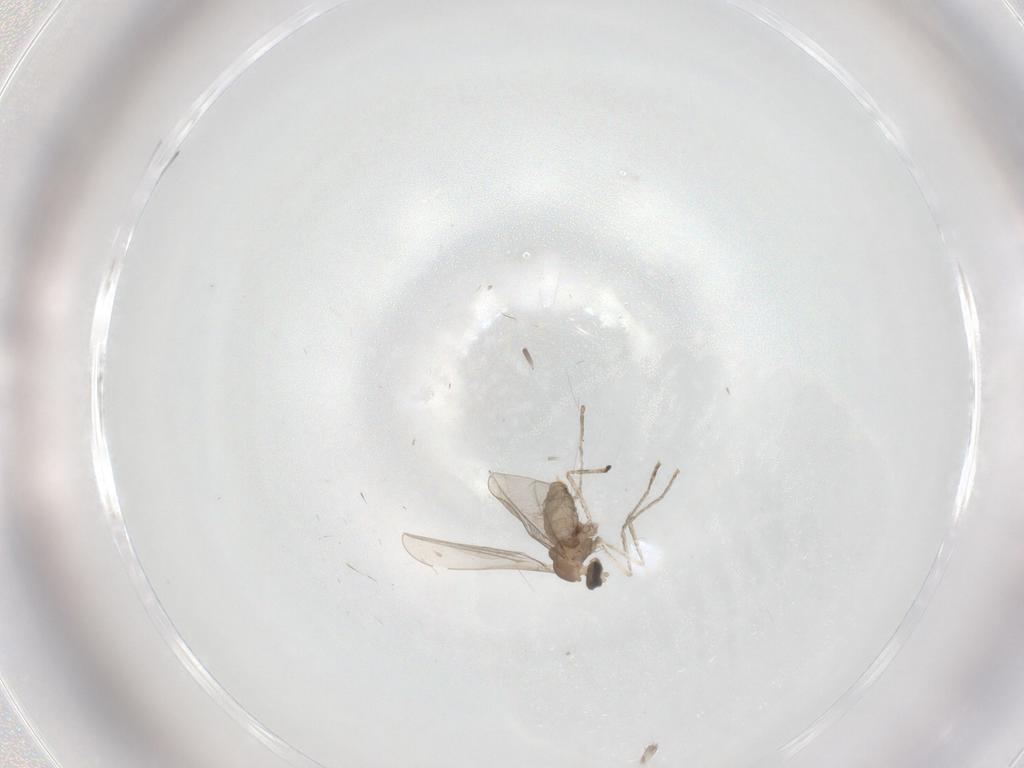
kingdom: Animalia
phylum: Arthropoda
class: Insecta
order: Diptera
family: Cecidomyiidae
